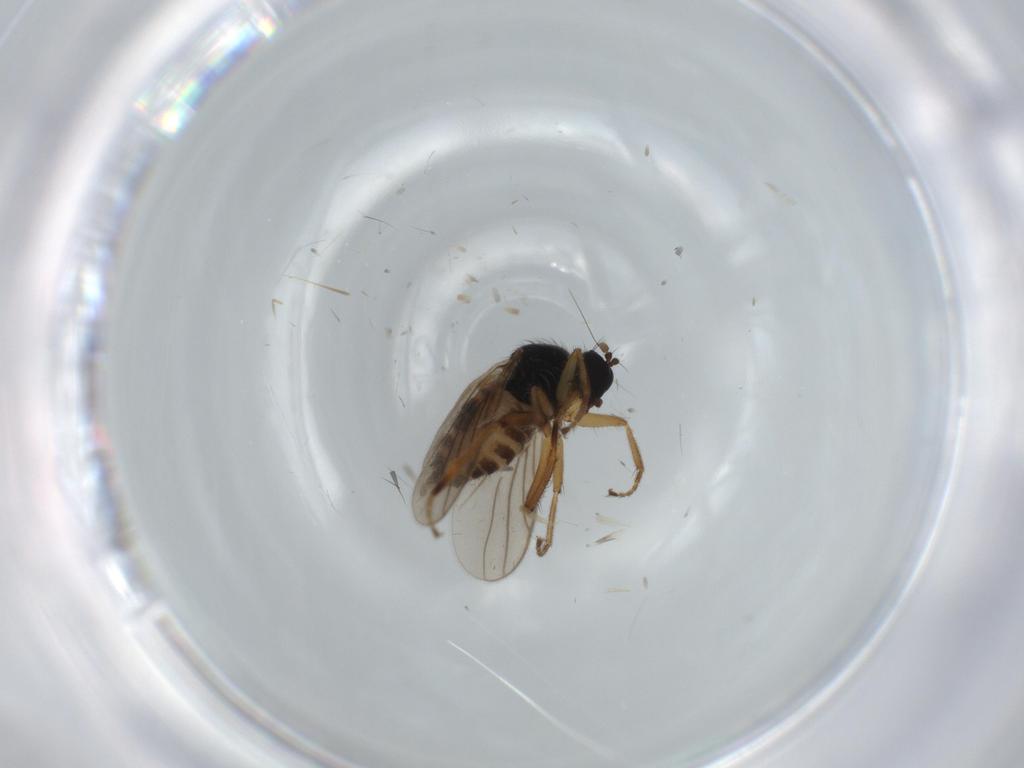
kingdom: Animalia
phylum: Arthropoda
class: Insecta
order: Diptera
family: Hybotidae
